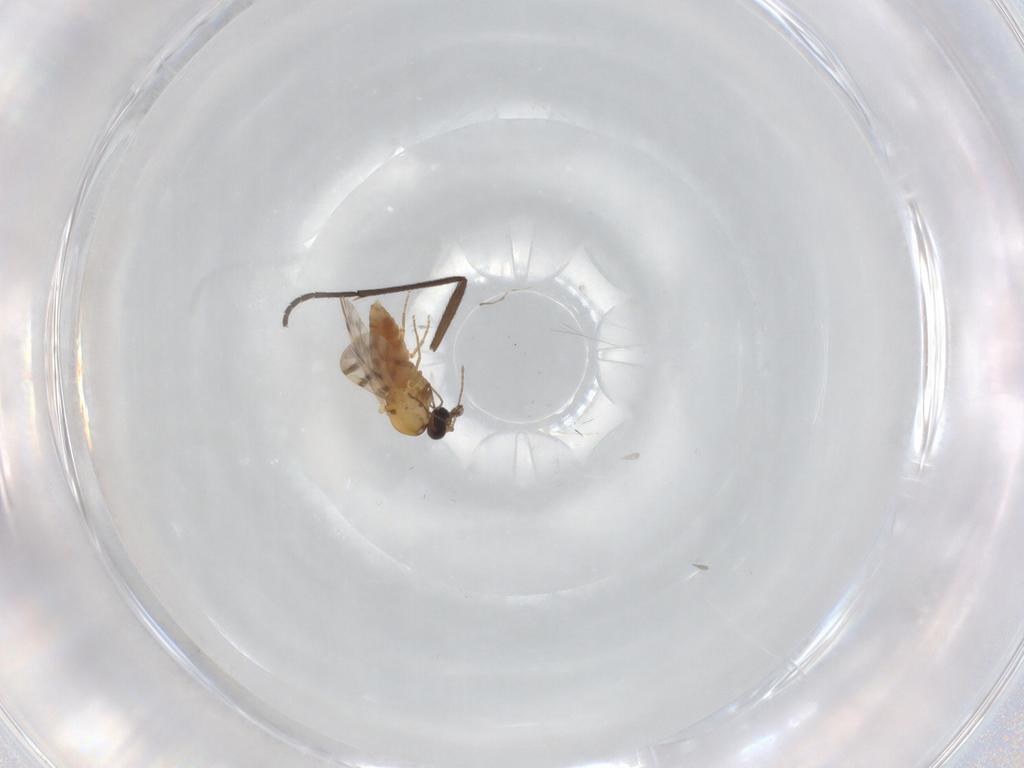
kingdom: Animalia
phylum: Arthropoda
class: Insecta
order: Diptera
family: Ceratopogonidae
